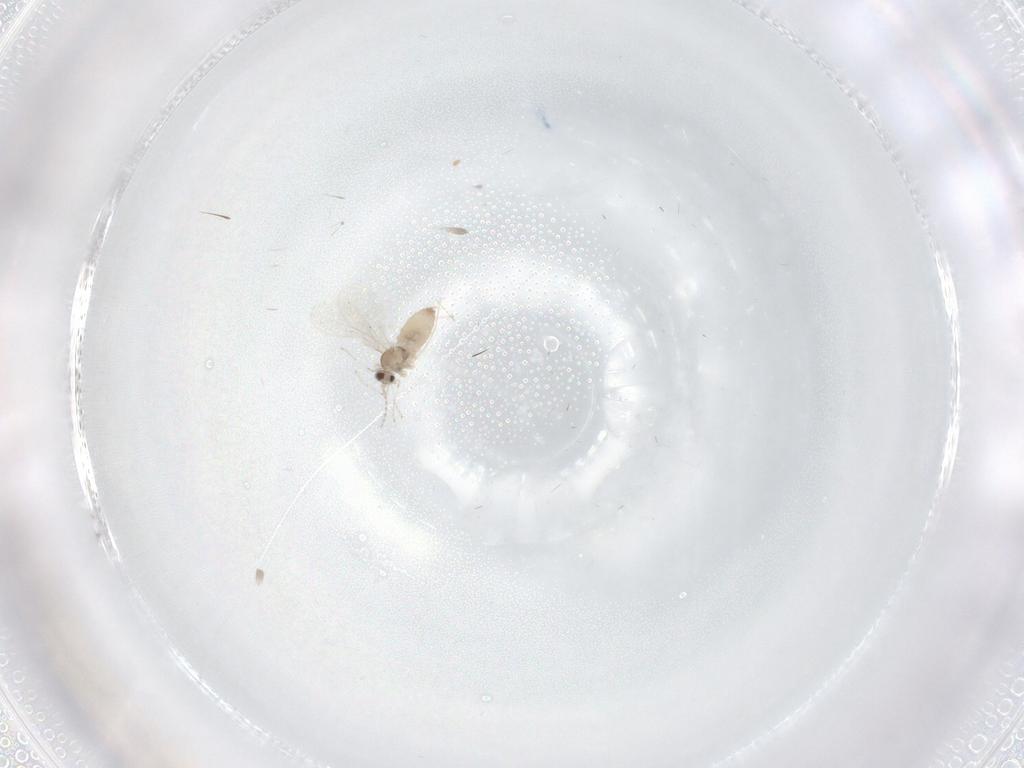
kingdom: Animalia
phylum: Arthropoda
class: Insecta
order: Diptera
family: Cecidomyiidae
